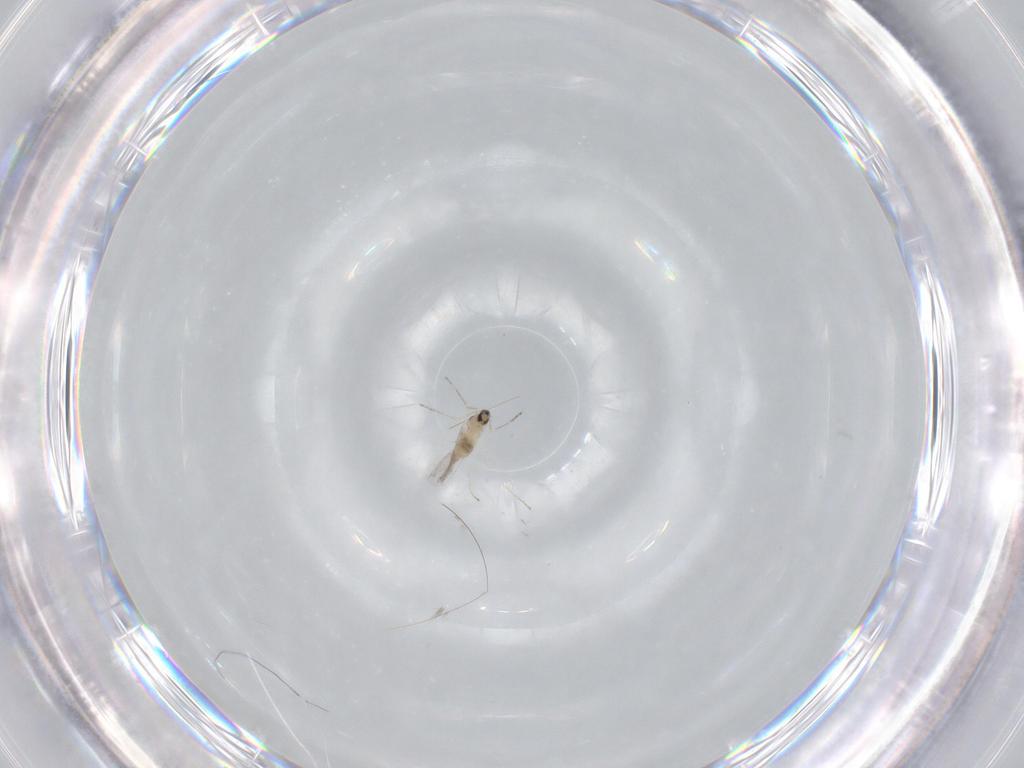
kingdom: Animalia
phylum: Arthropoda
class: Insecta
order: Diptera
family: Cecidomyiidae
